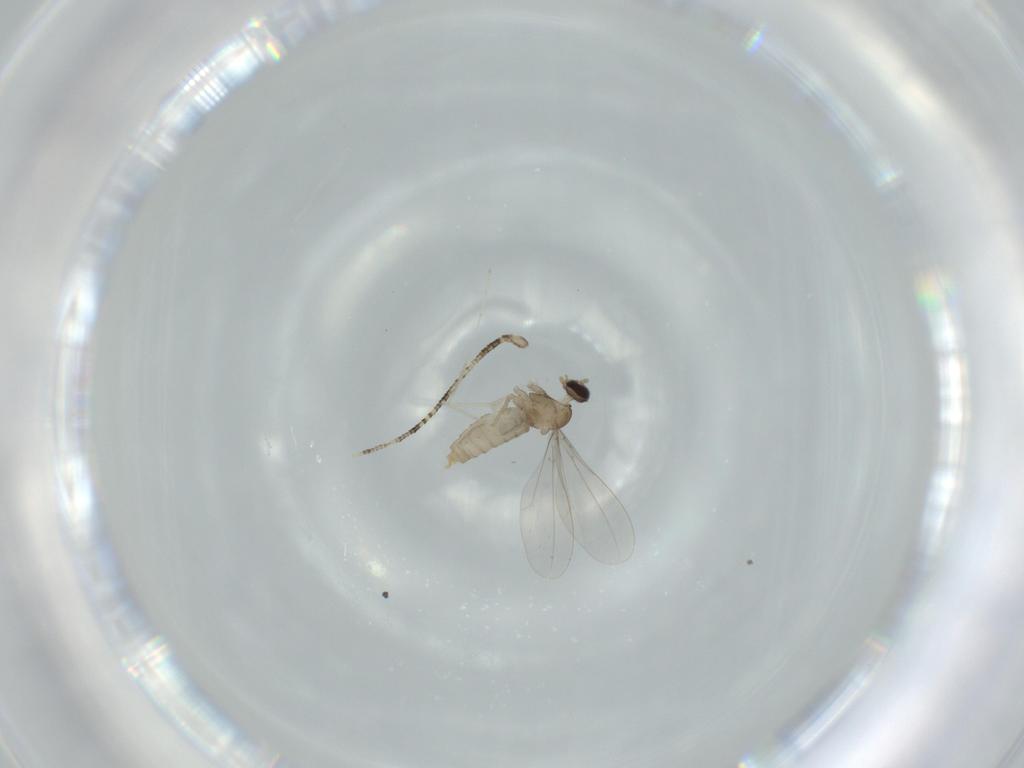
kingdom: Animalia
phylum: Arthropoda
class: Insecta
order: Diptera
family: Cecidomyiidae
